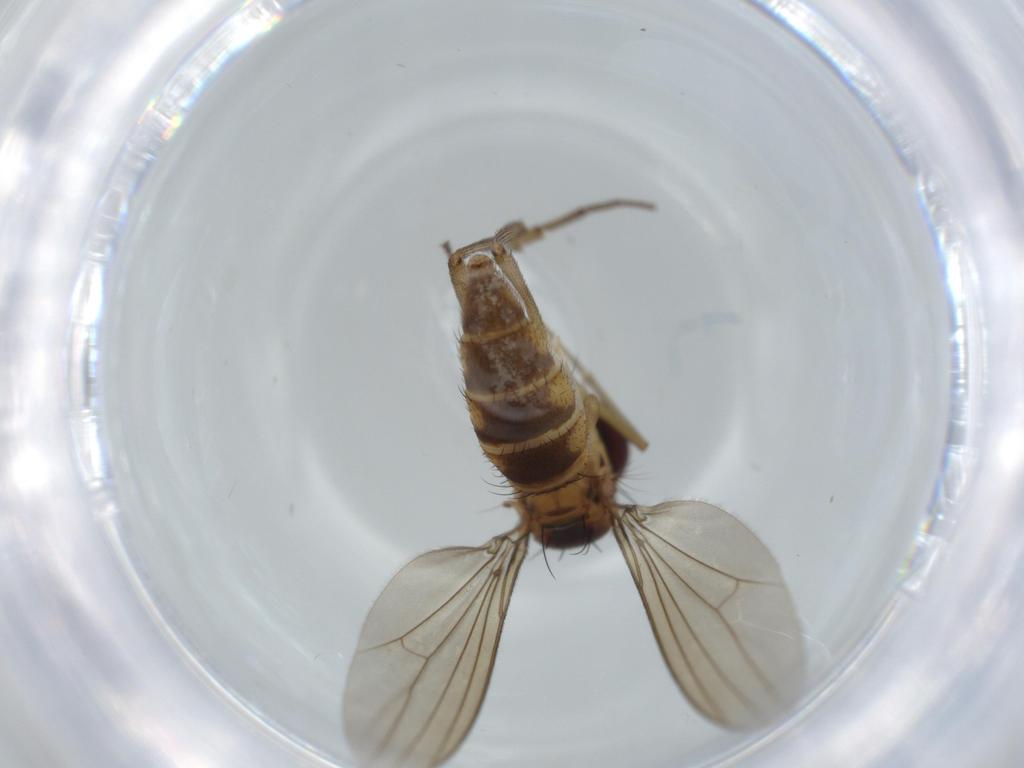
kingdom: Animalia
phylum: Arthropoda
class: Insecta
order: Diptera
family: Dolichopodidae
